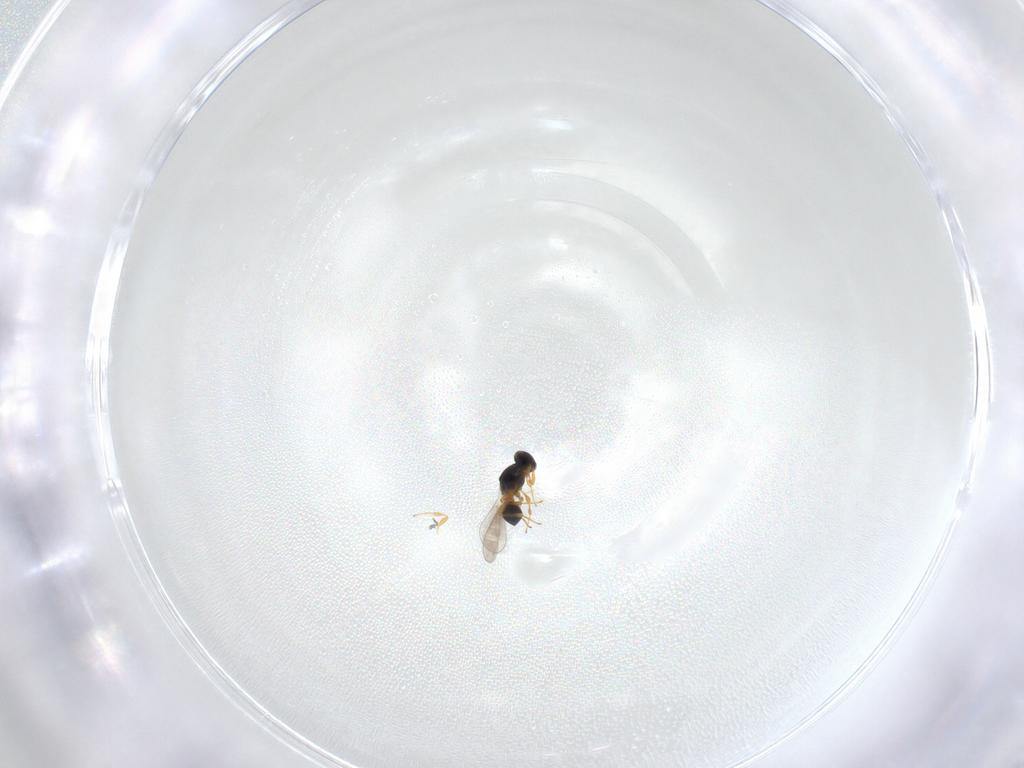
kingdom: Animalia
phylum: Arthropoda
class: Insecta
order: Hymenoptera
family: Platygastridae
